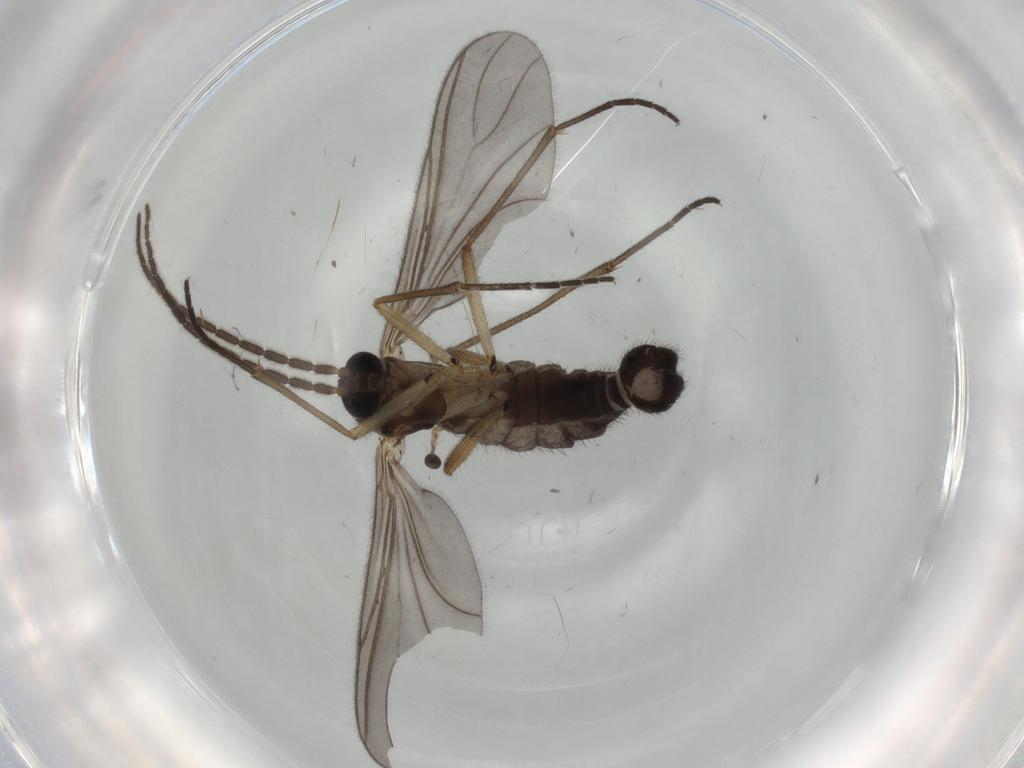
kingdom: Animalia
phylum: Arthropoda
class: Insecta
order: Diptera
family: Sciaridae
